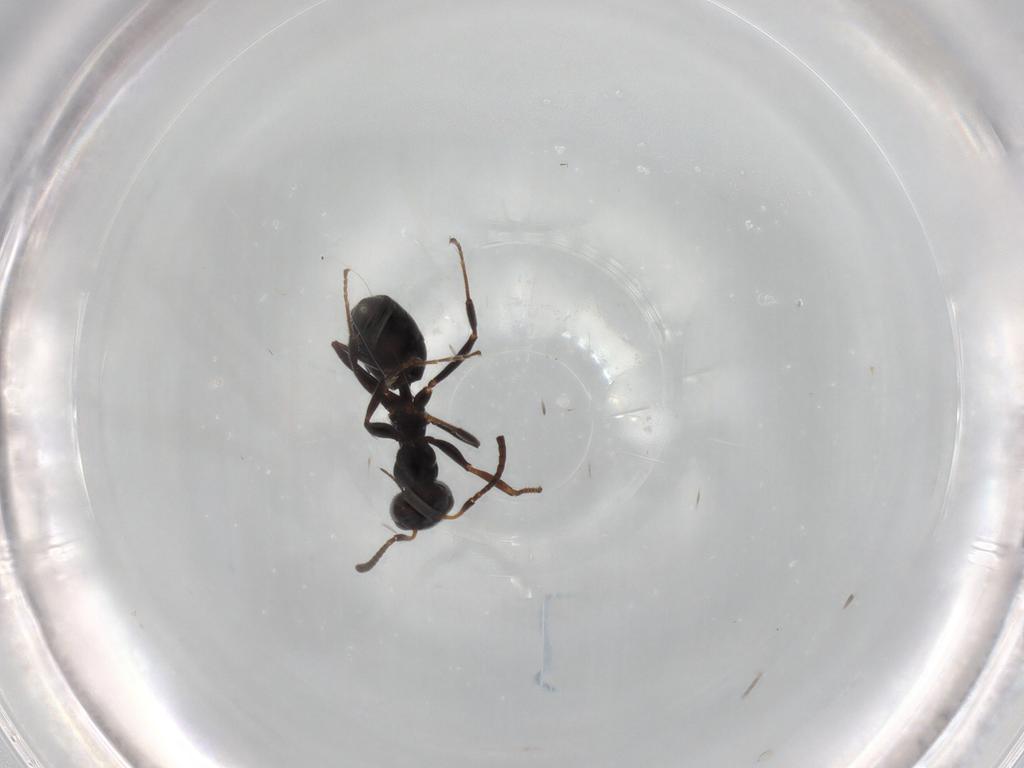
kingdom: Animalia
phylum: Arthropoda
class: Insecta
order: Hymenoptera
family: Formicidae
